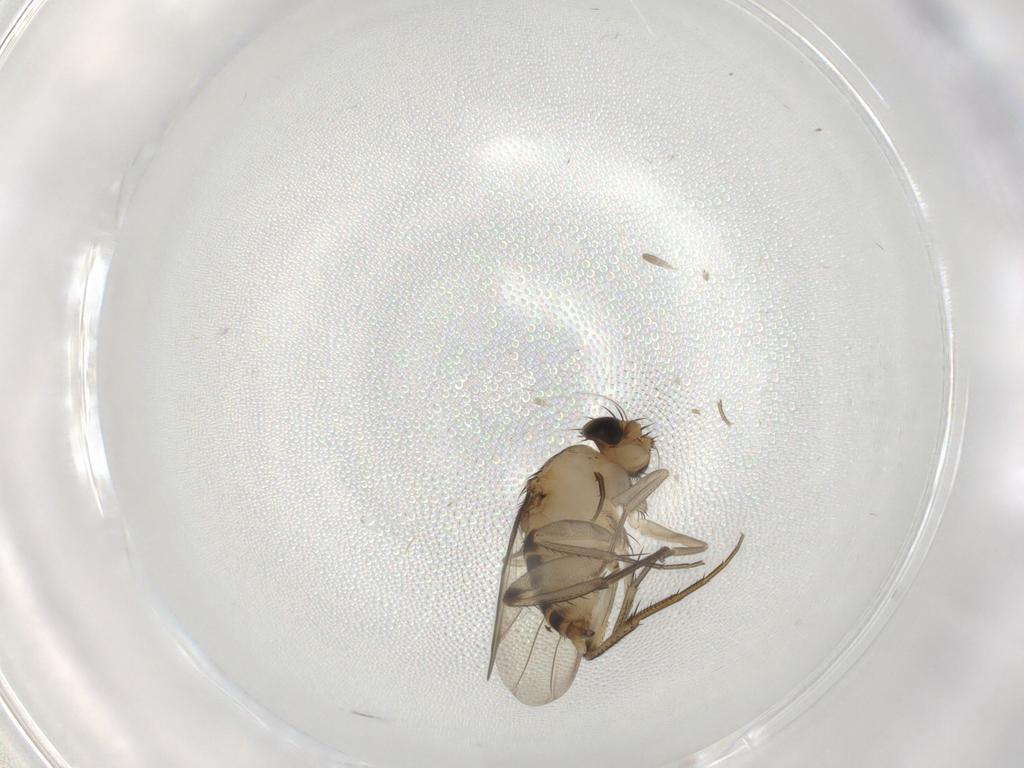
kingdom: Animalia
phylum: Arthropoda
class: Insecta
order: Diptera
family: Phoridae
